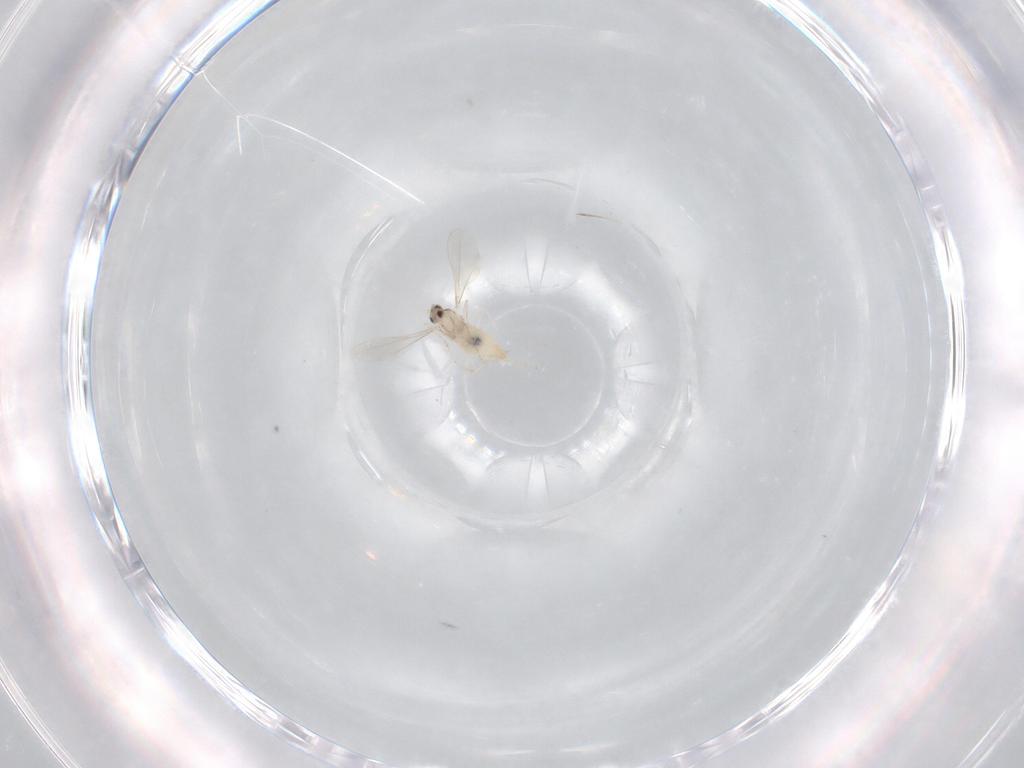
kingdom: Animalia
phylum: Arthropoda
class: Insecta
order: Diptera
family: Cecidomyiidae
